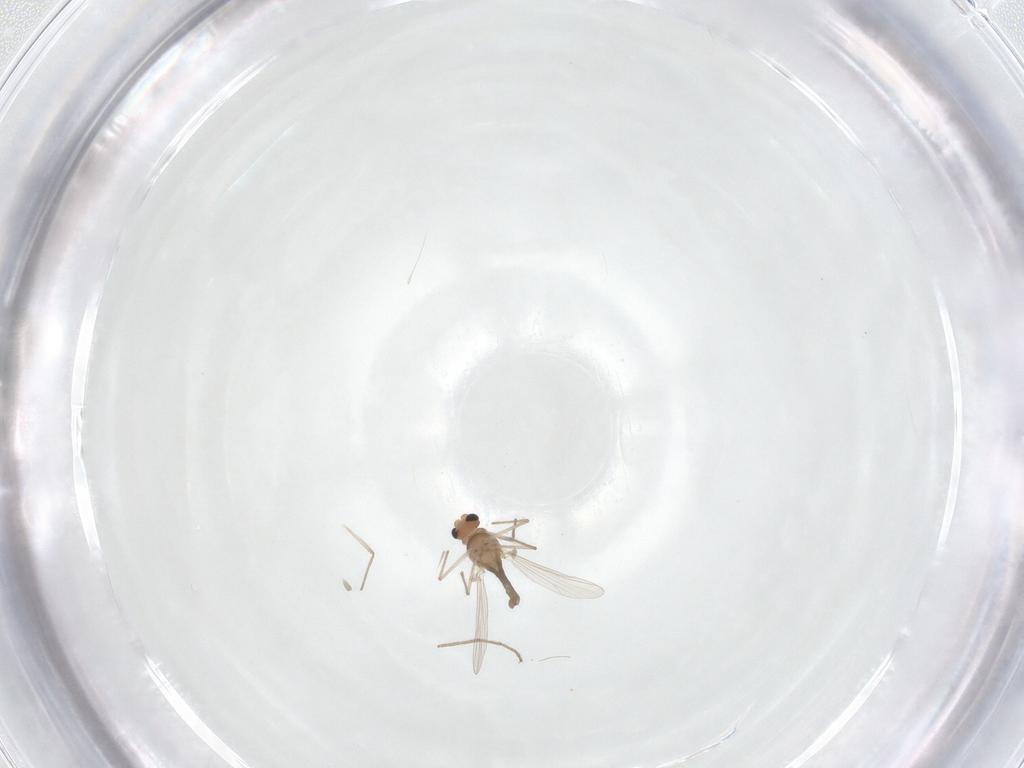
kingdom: Animalia
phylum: Arthropoda
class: Insecta
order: Diptera
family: Chironomidae
